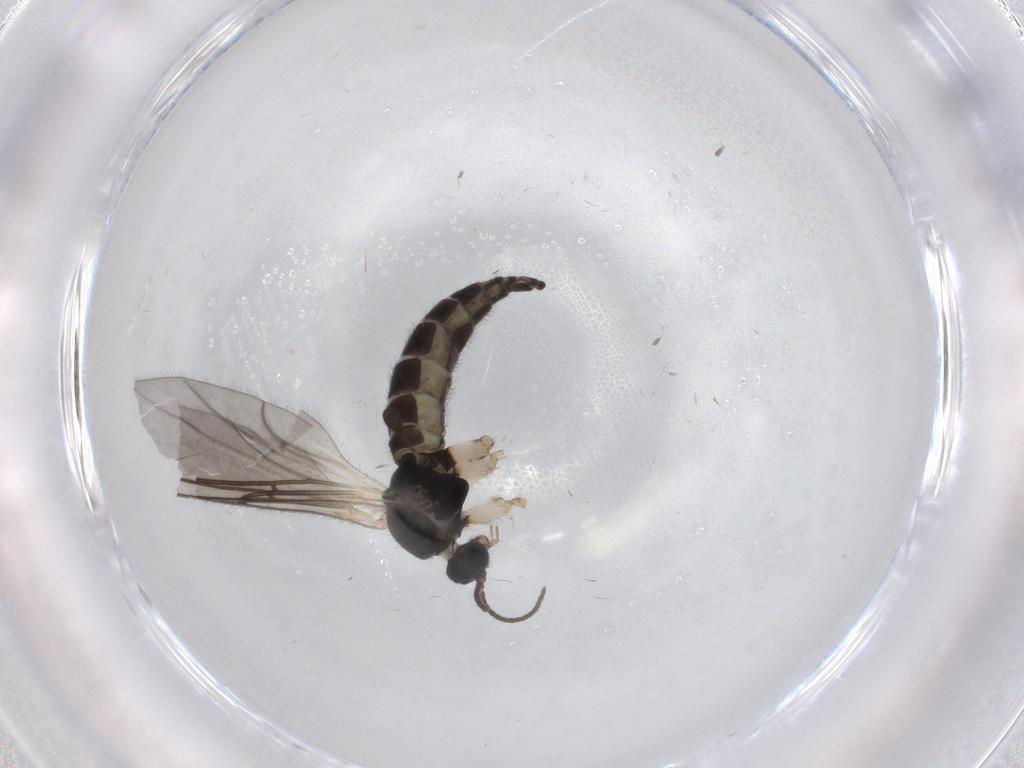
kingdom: Animalia
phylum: Arthropoda
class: Insecta
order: Diptera
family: Sciaridae
